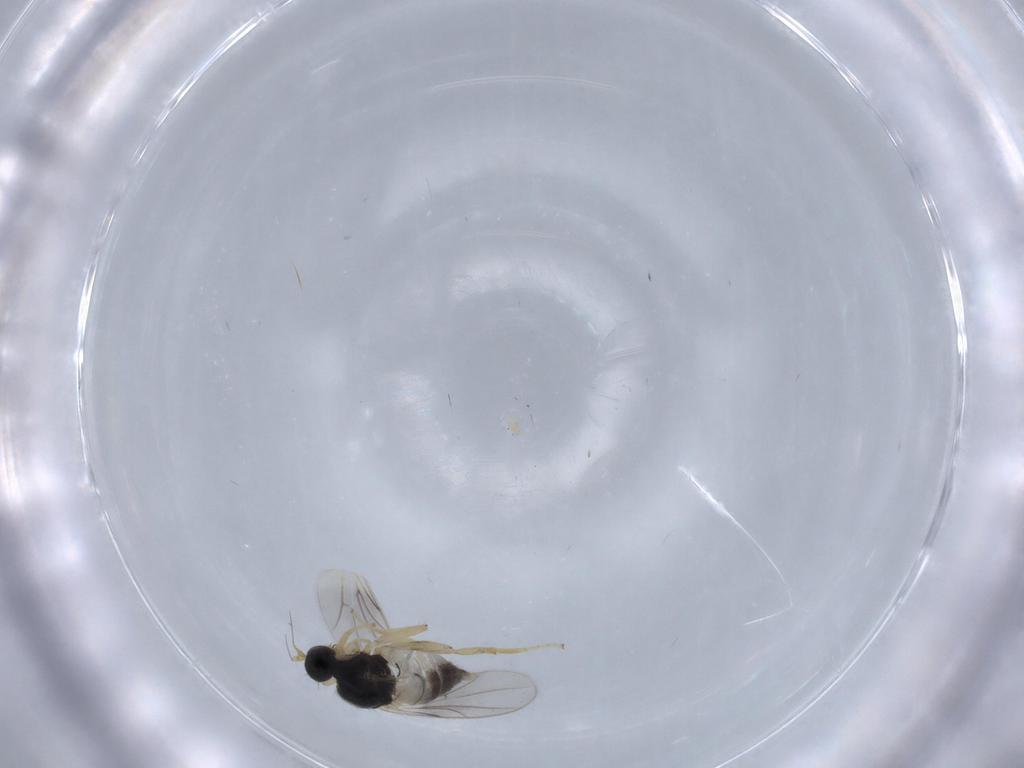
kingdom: Animalia
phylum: Arthropoda
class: Insecta
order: Diptera
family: Hybotidae
